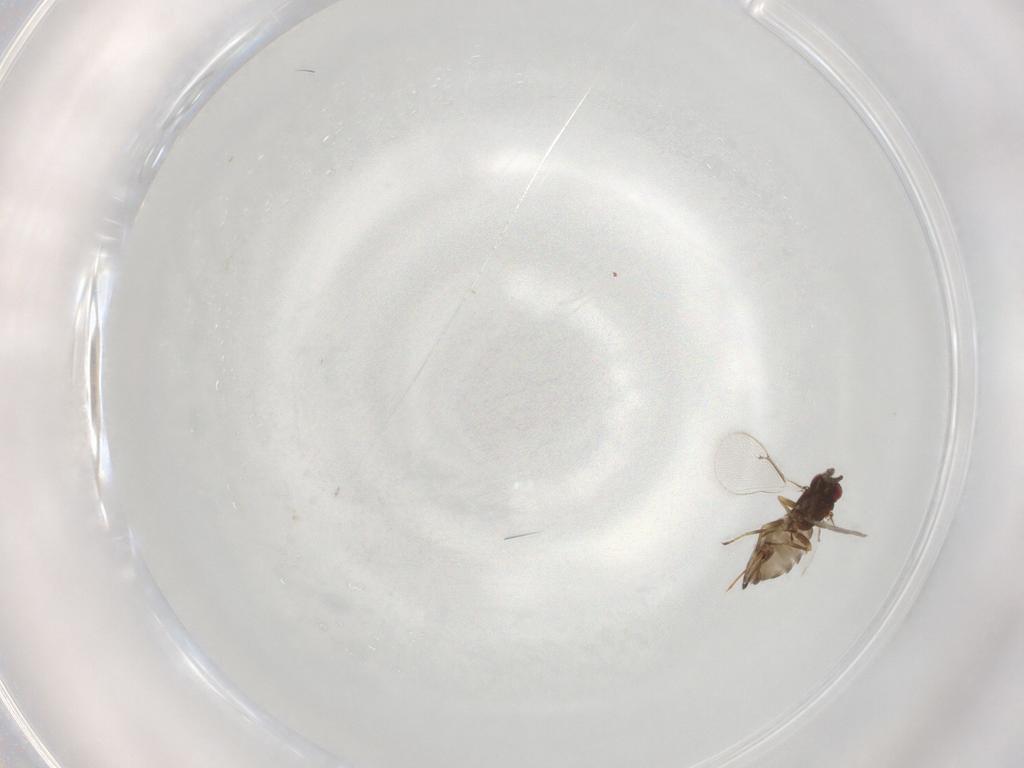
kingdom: Animalia
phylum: Arthropoda
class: Insecta
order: Hymenoptera
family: Eulophidae
